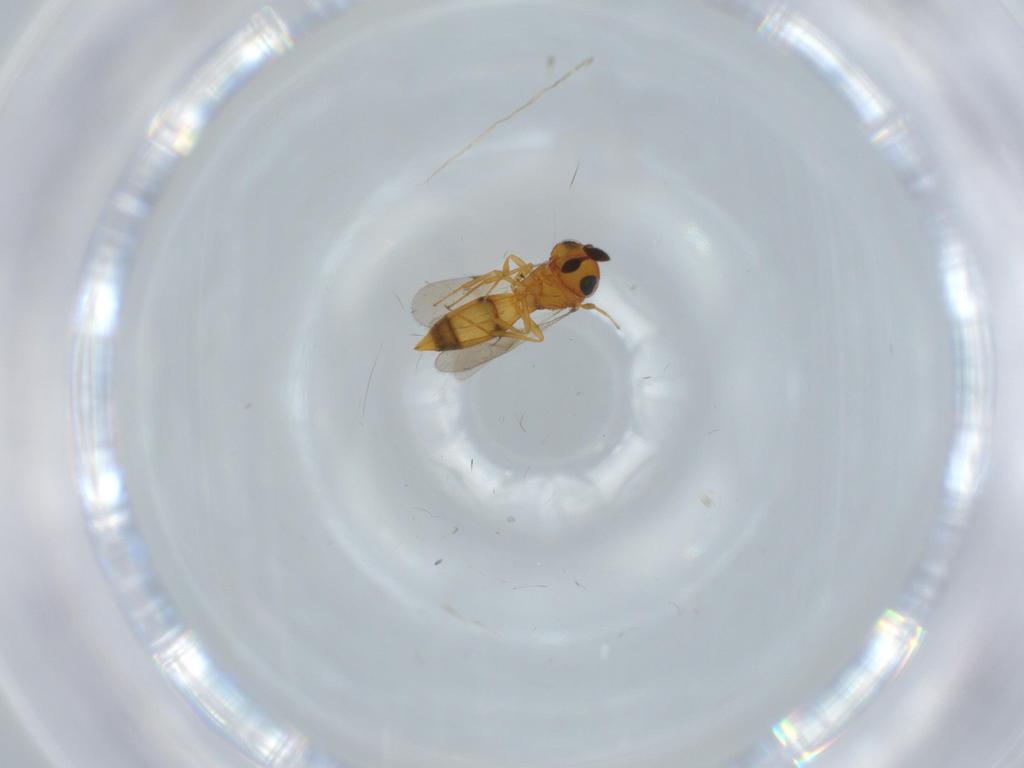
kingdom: Animalia
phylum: Arthropoda
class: Insecta
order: Hymenoptera
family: Scelionidae
